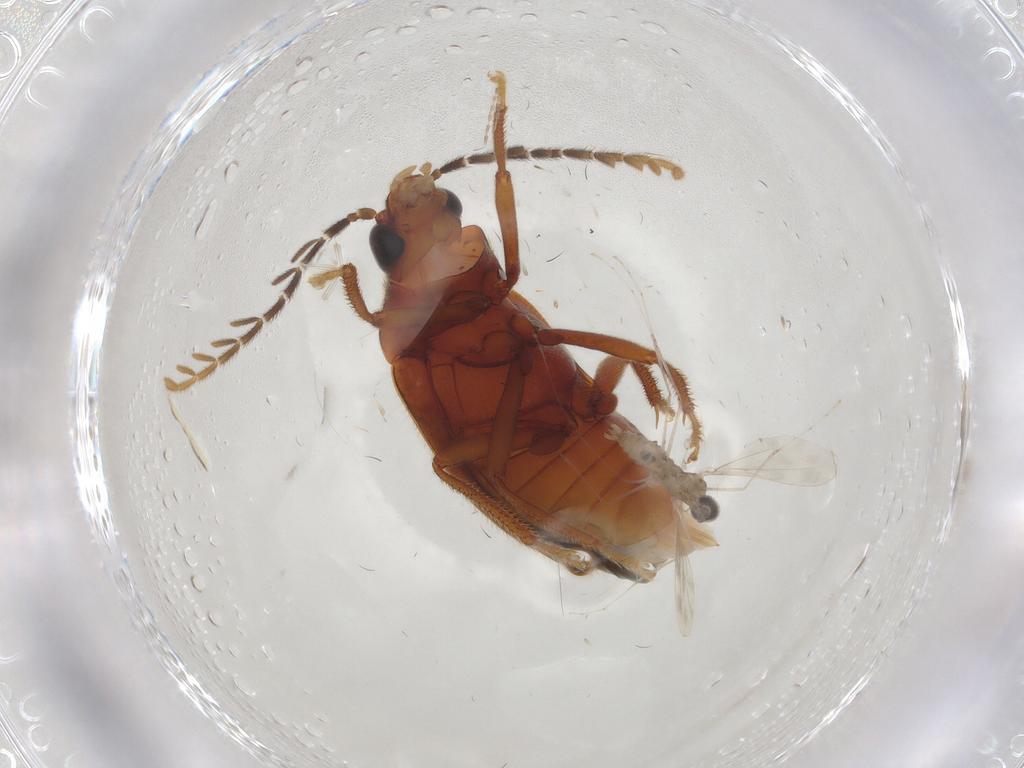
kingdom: Animalia
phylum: Arthropoda
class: Insecta
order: Coleoptera
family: Ptilodactylidae
